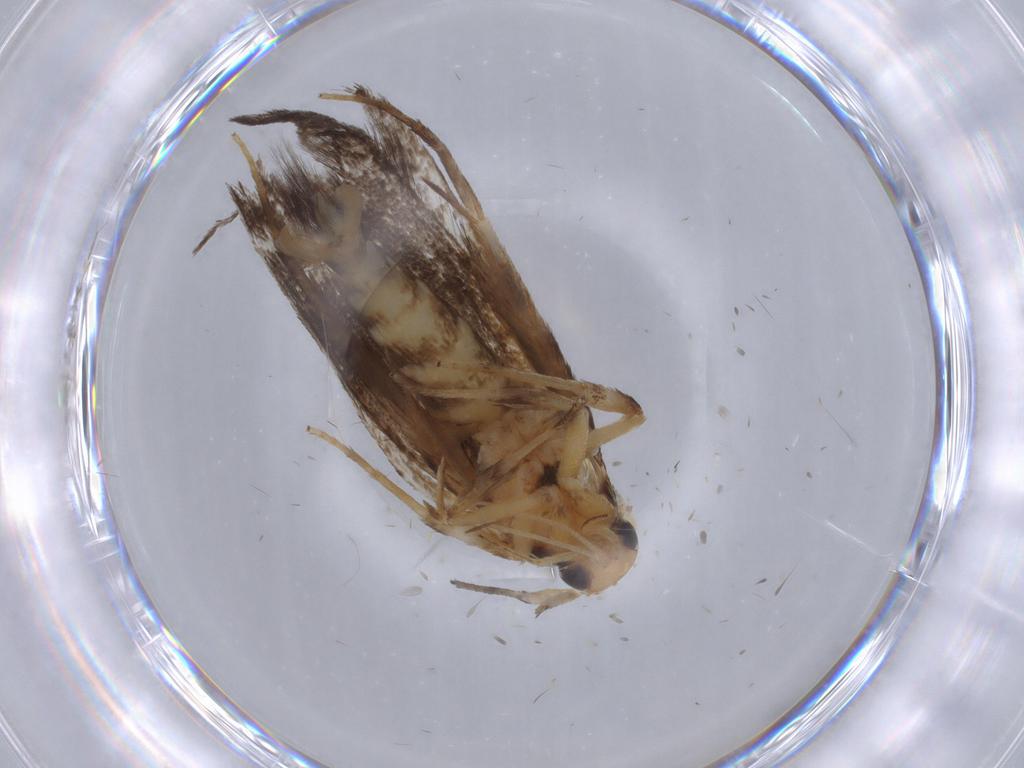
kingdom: Animalia
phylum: Arthropoda
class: Insecta
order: Lepidoptera
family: Cosmopterigidae
